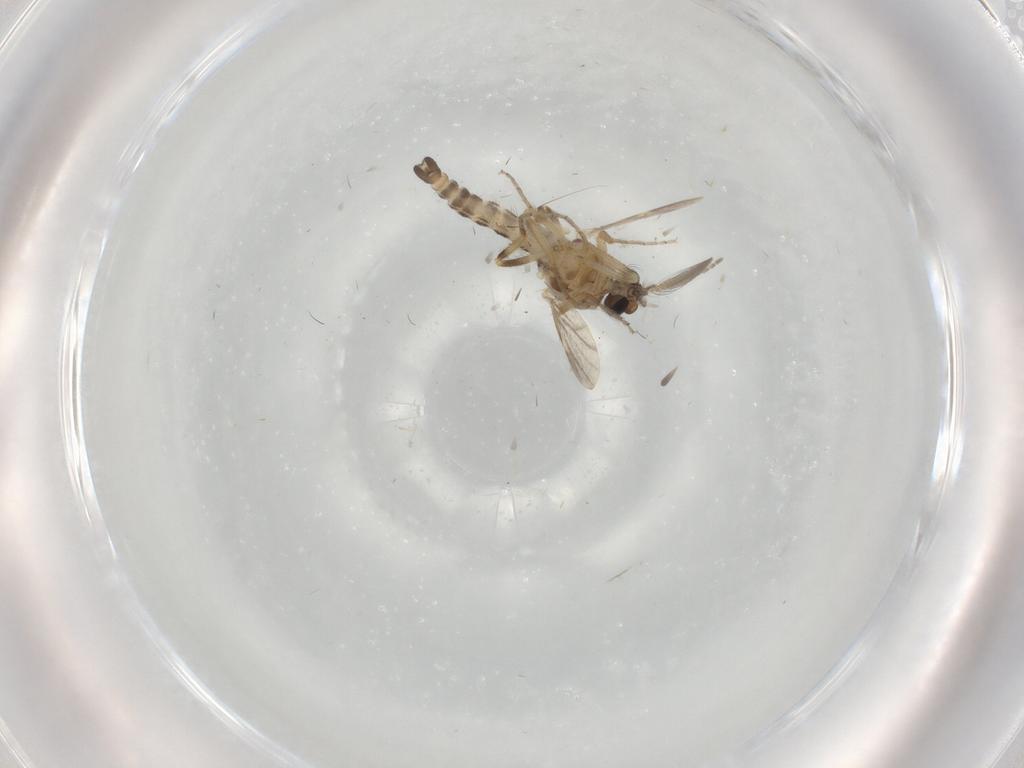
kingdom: Animalia
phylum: Arthropoda
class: Insecta
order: Diptera
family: Ceratopogonidae
